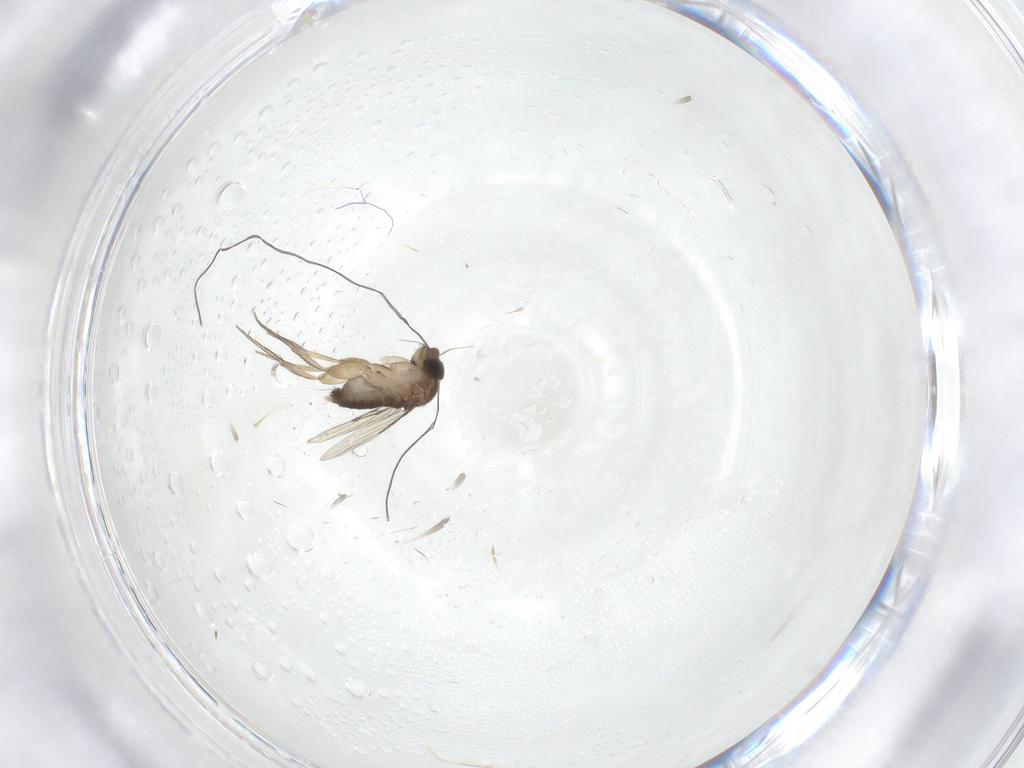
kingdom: Animalia
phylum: Arthropoda
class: Insecta
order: Diptera
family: Phoridae
